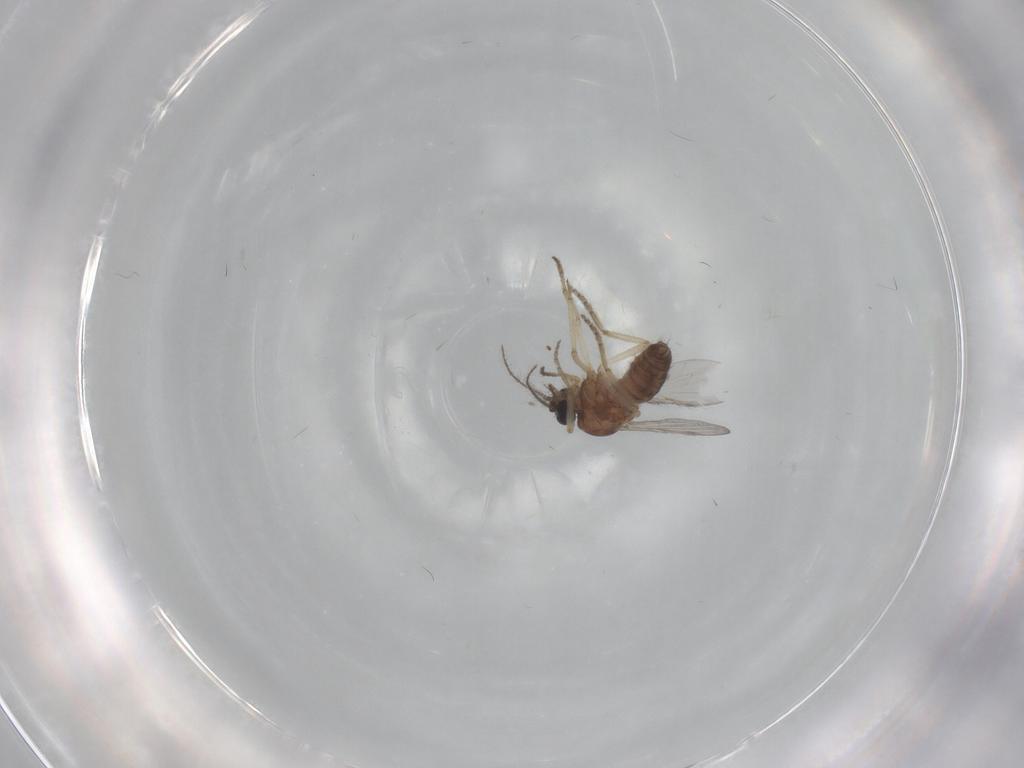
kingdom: Animalia
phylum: Arthropoda
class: Insecta
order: Diptera
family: Ceratopogonidae
